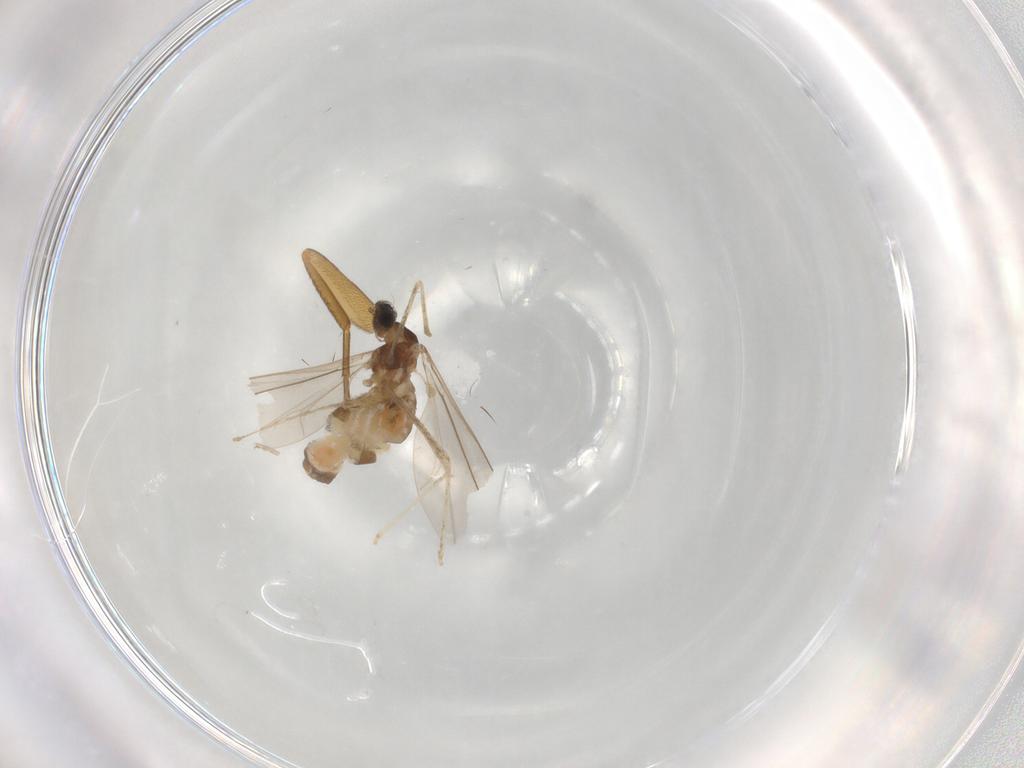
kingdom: Animalia
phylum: Arthropoda
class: Insecta
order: Diptera
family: Cecidomyiidae
